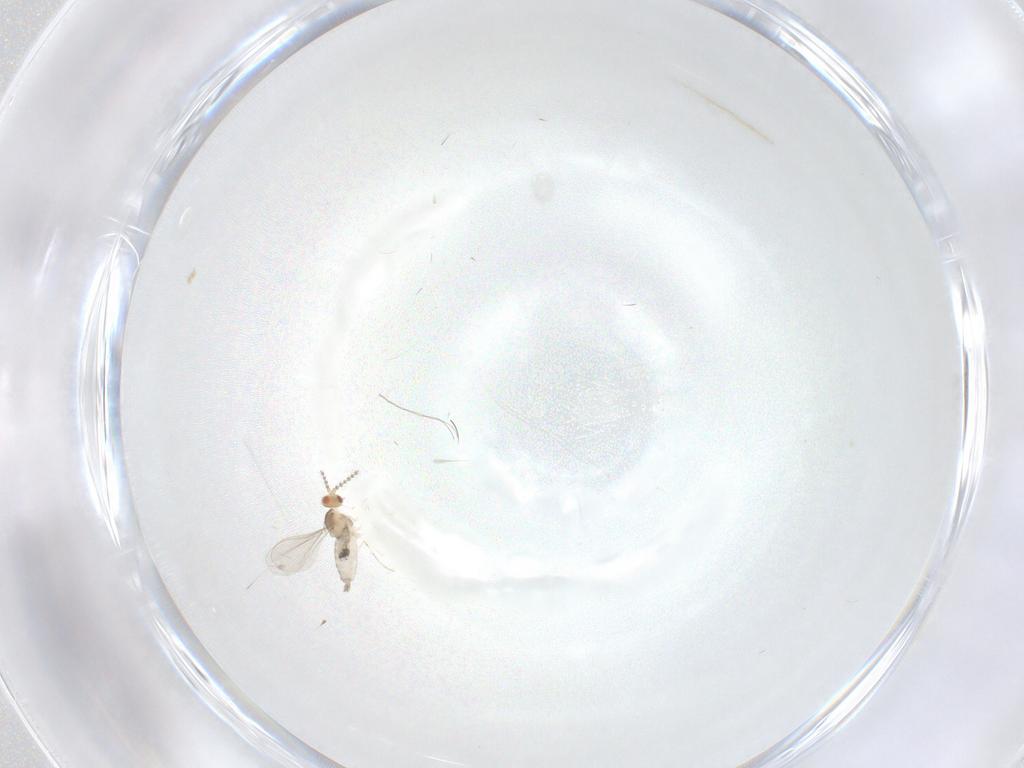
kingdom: Animalia
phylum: Arthropoda
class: Insecta
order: Diptera
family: Cecidomyiidae
